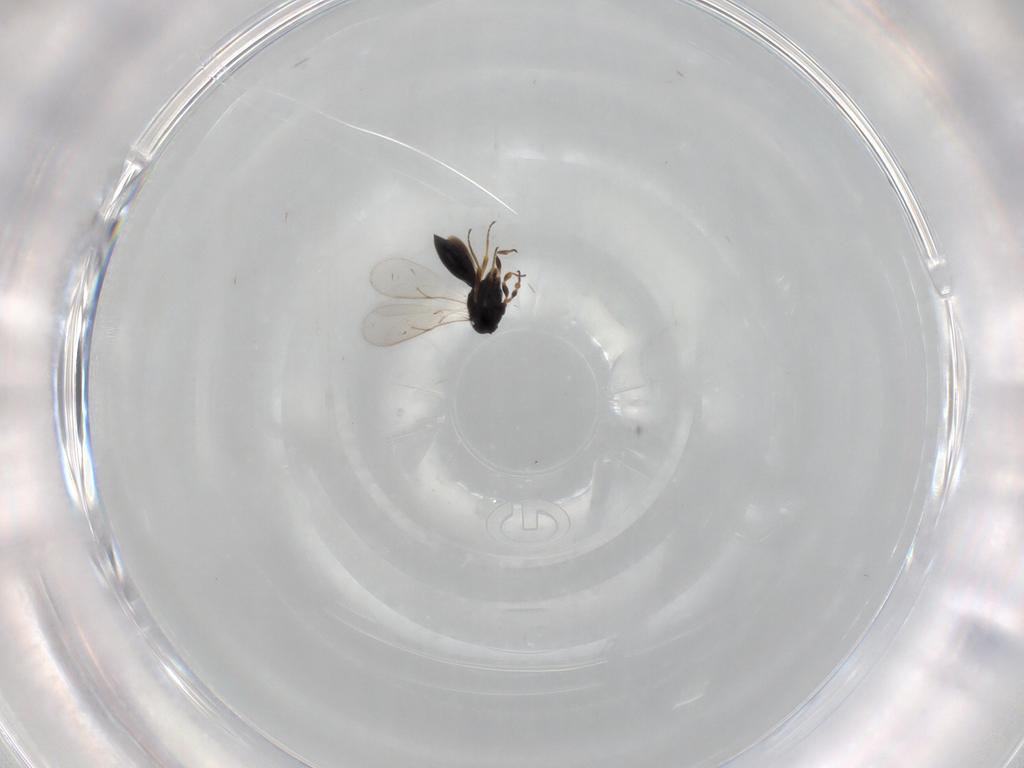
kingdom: Animalia
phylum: Arthropoda
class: Insecta
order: Hymenoptera
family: Scelionidae
